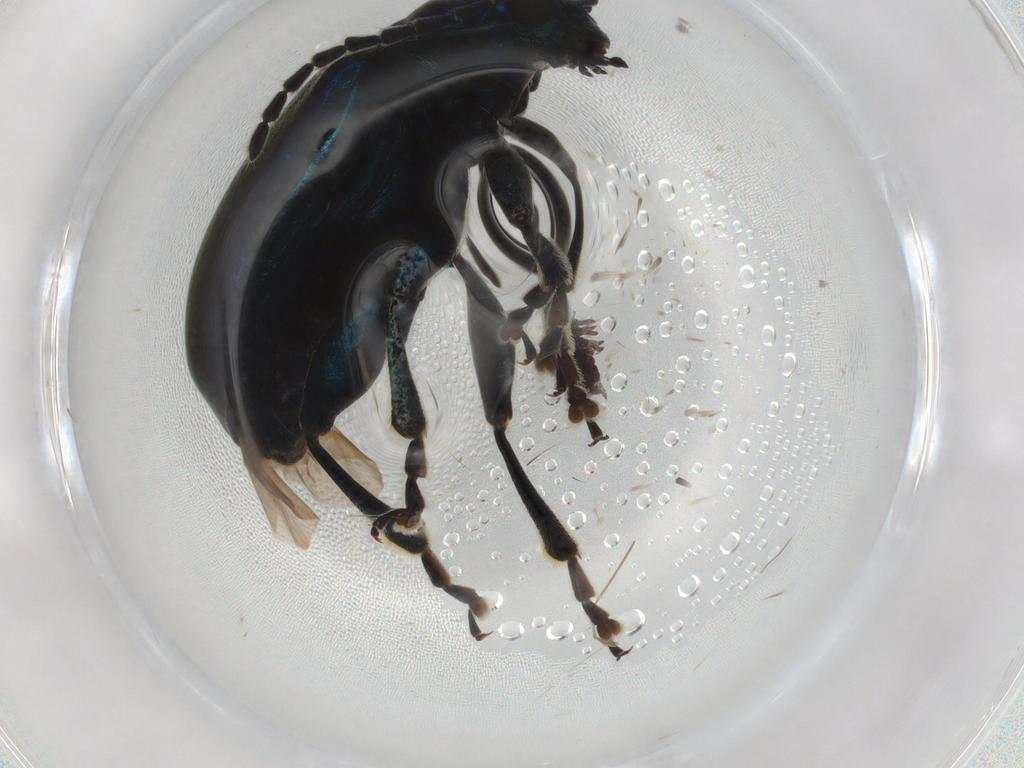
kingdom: Animalia
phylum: Arthropoda
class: Insecta
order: Coleoptera
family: Chrysomelidae
